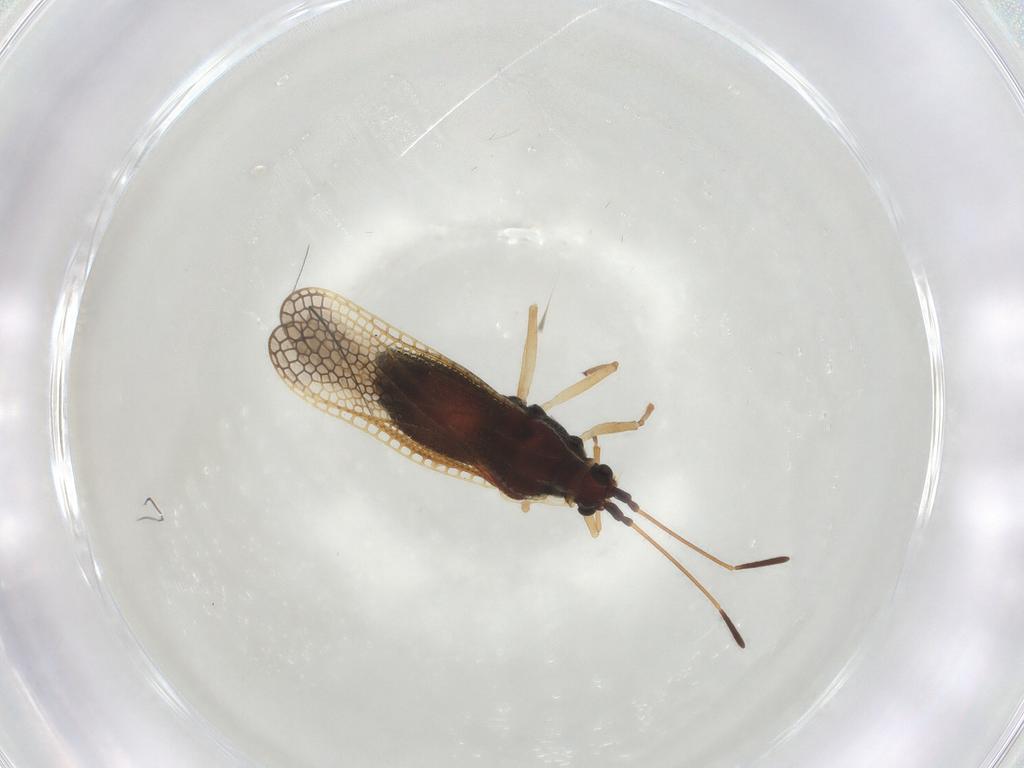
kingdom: Animalia
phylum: Arthropoda
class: Insecta
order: Hemiptera
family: Tingidae
